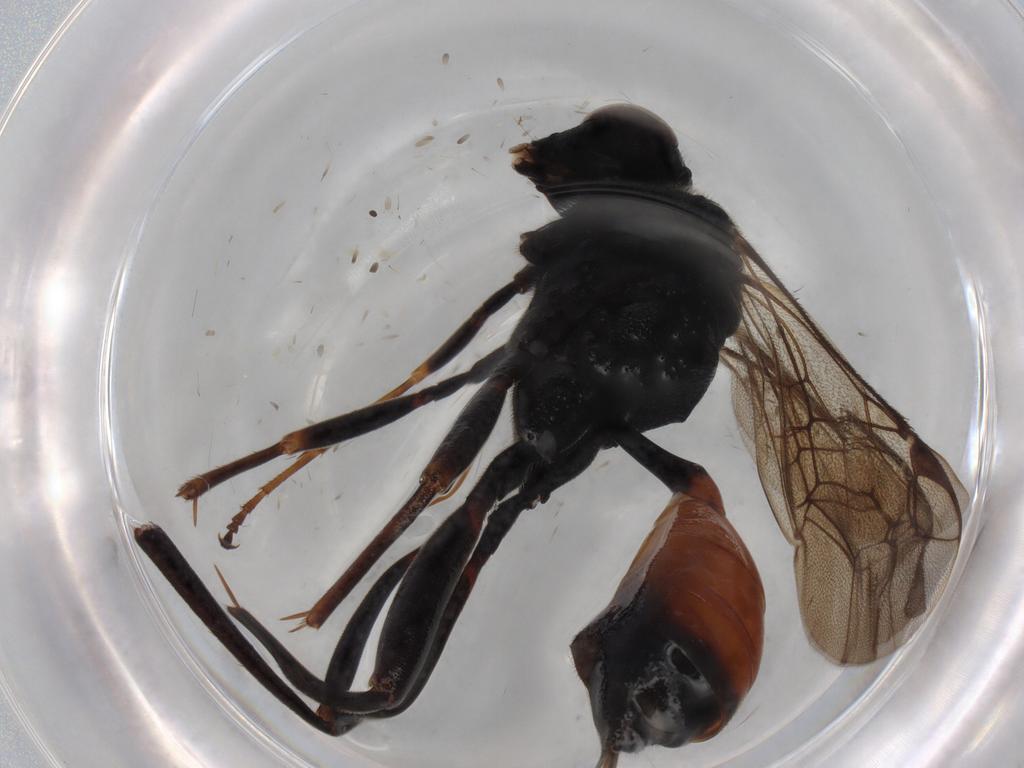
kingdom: Animalia
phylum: Arthropoda
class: Insecta
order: Hymenoptera
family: Ichneumonidae
